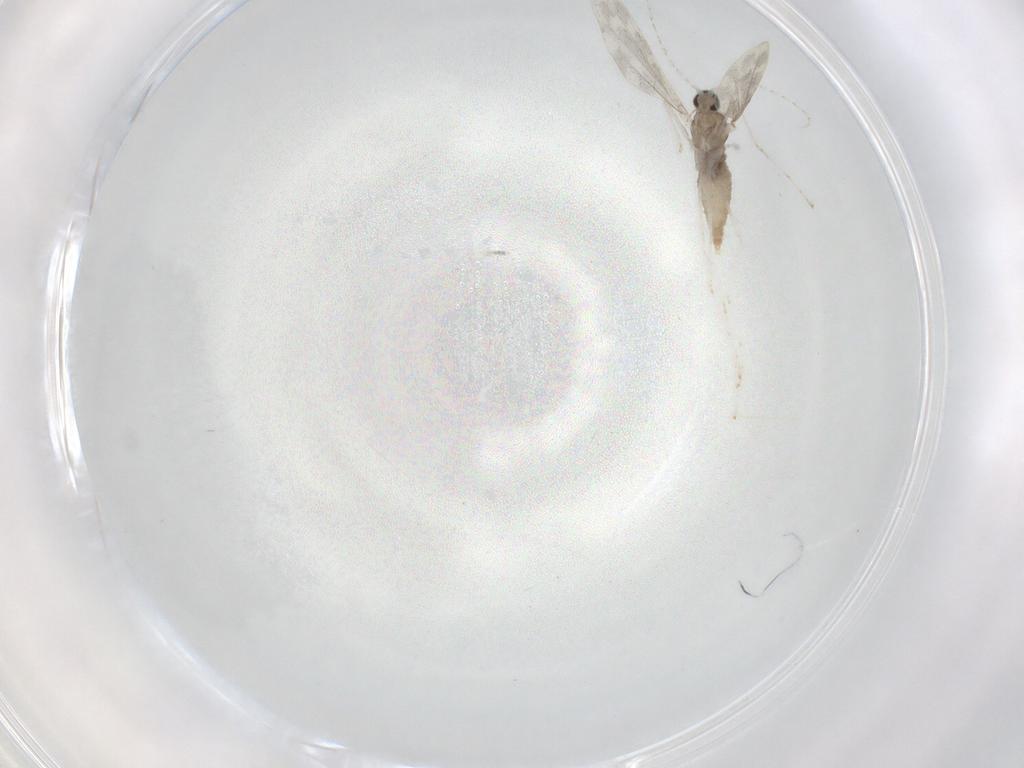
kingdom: Animalia
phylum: Arthropoda
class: Insecta
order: Diptera
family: Cecidomyiidae
